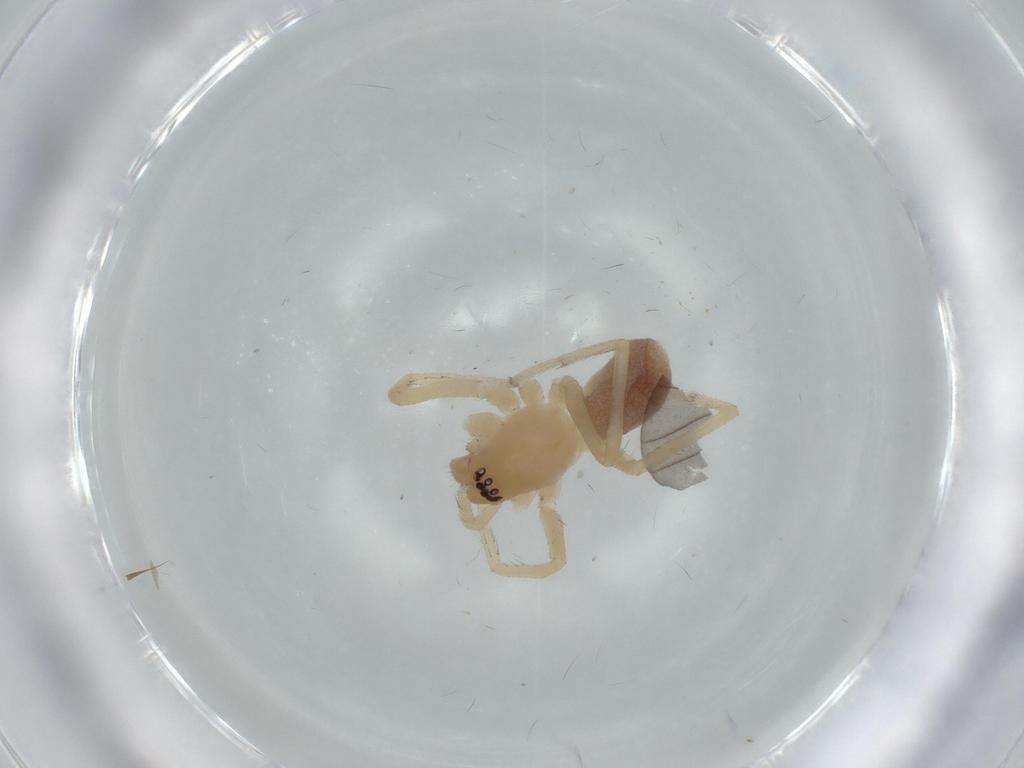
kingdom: Animalia
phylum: Arthropoda
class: Arachnida
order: Araneae
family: Corinnidae
